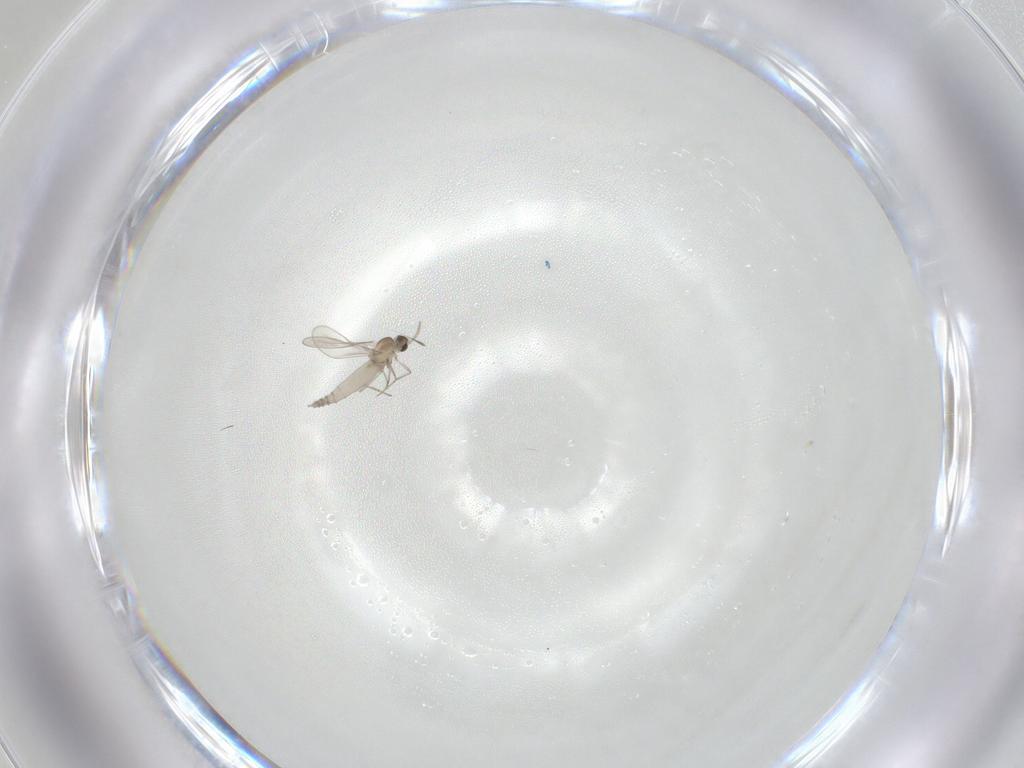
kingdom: Animalia
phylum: Arthropoda
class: Insecta
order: Diptera
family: Cecidomyiidae
